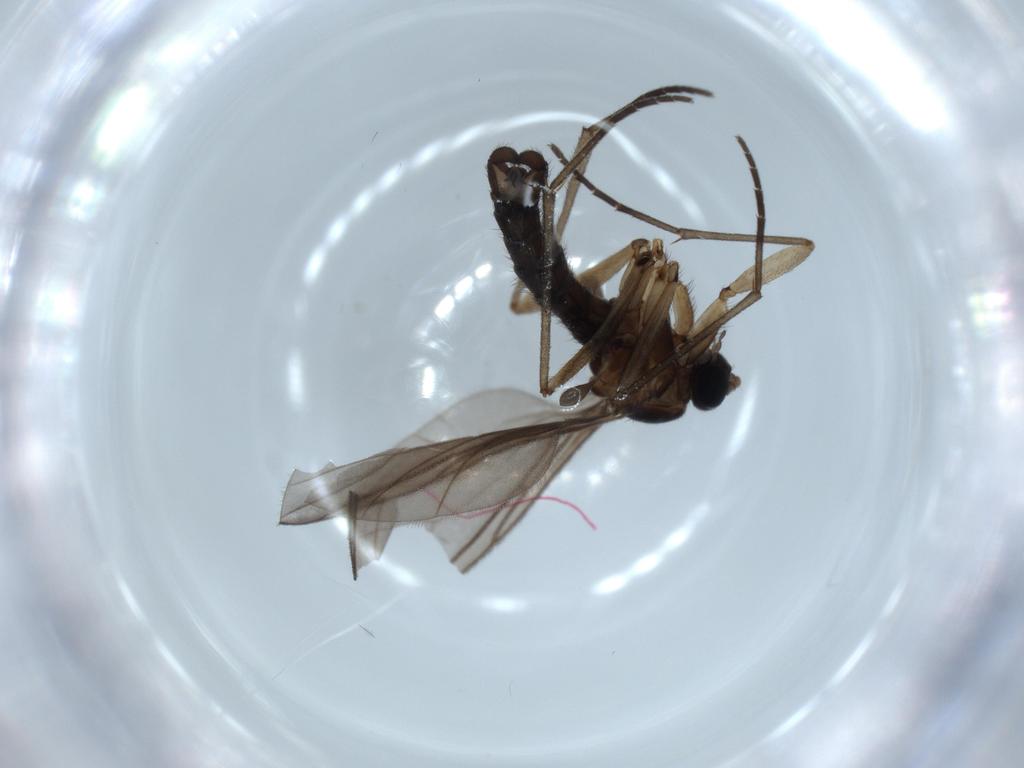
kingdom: Animalia
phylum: Arthropoda
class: Insecta
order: Diptera
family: Sciaridae
